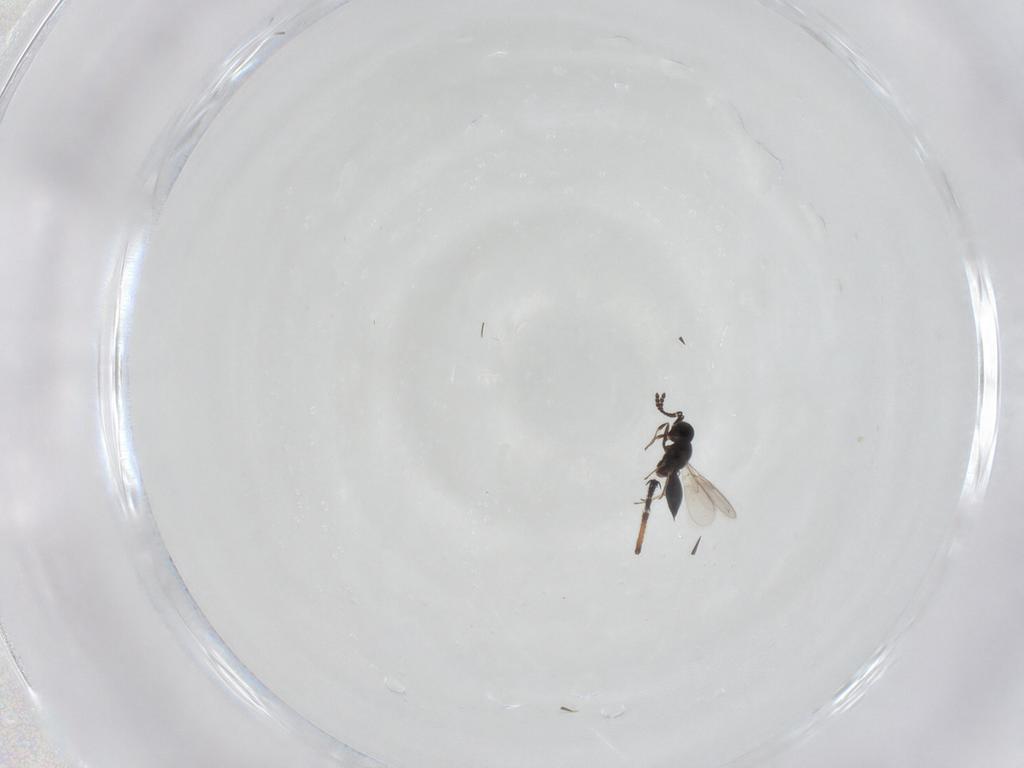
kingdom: Animalia
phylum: Arthropoda
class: Insecta
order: Hymenoptera
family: Scelionidae
